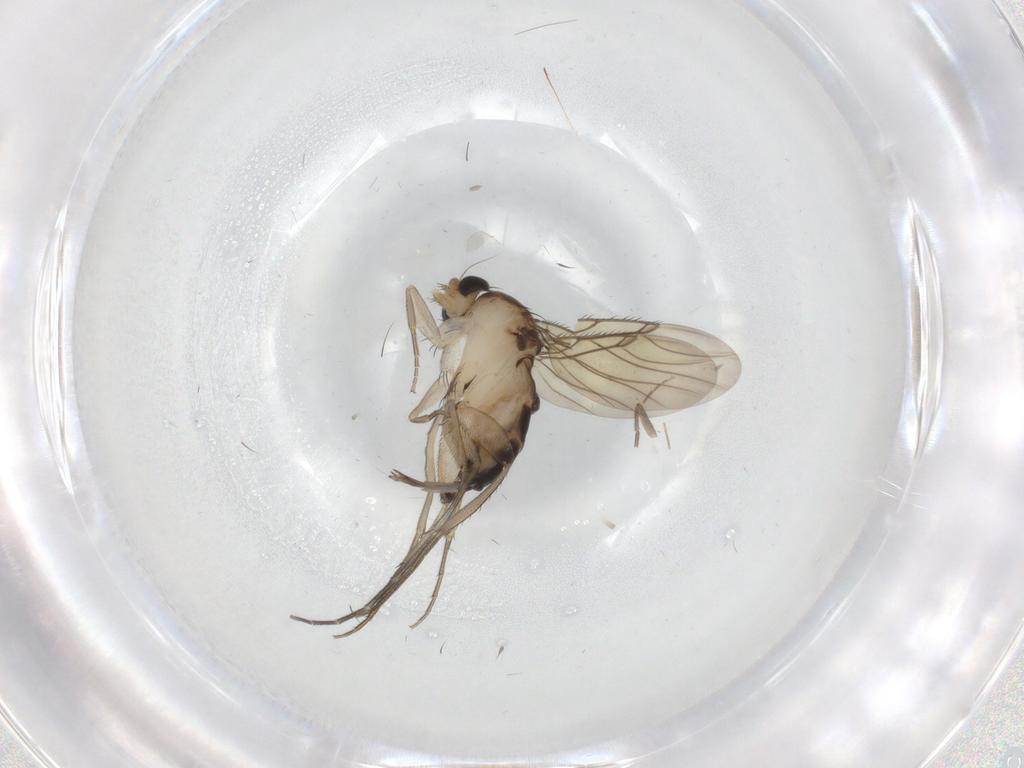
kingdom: Animalia
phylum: Arthropoda
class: Insecta
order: Diptera
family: Phoridae
